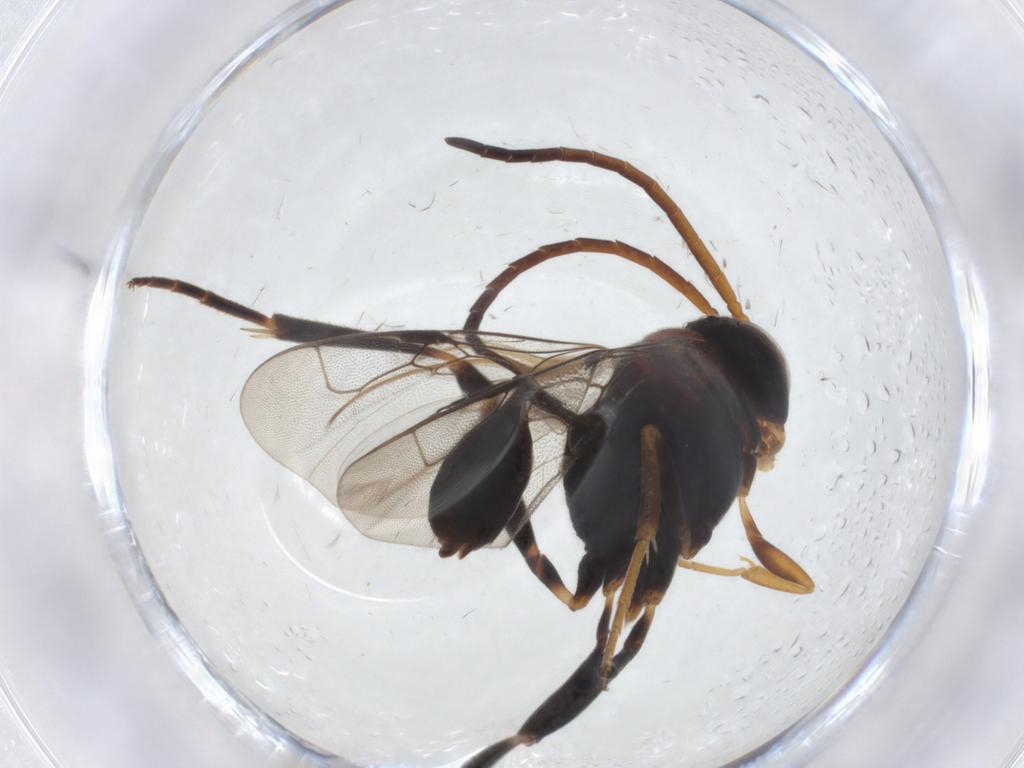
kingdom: Animalia
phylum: Arthropoda
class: Insecta
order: Hymenoptera
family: Evaniidae
